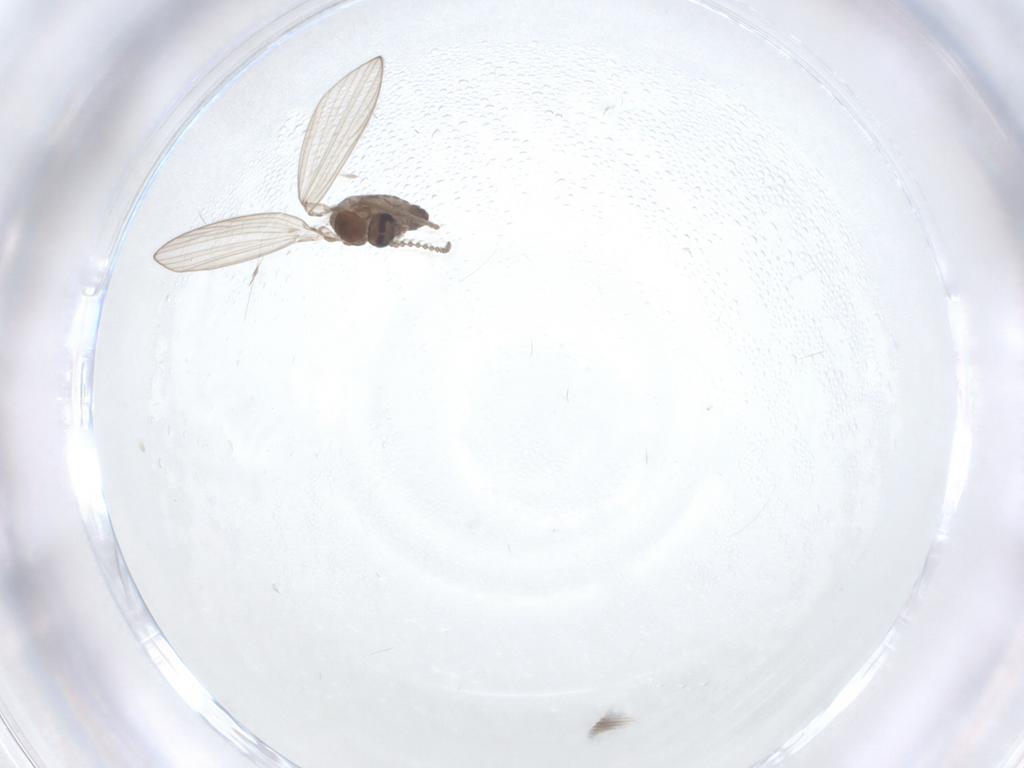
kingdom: Animalia
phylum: Arthropoda
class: Insecta
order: Diptera
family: Psychodidae
